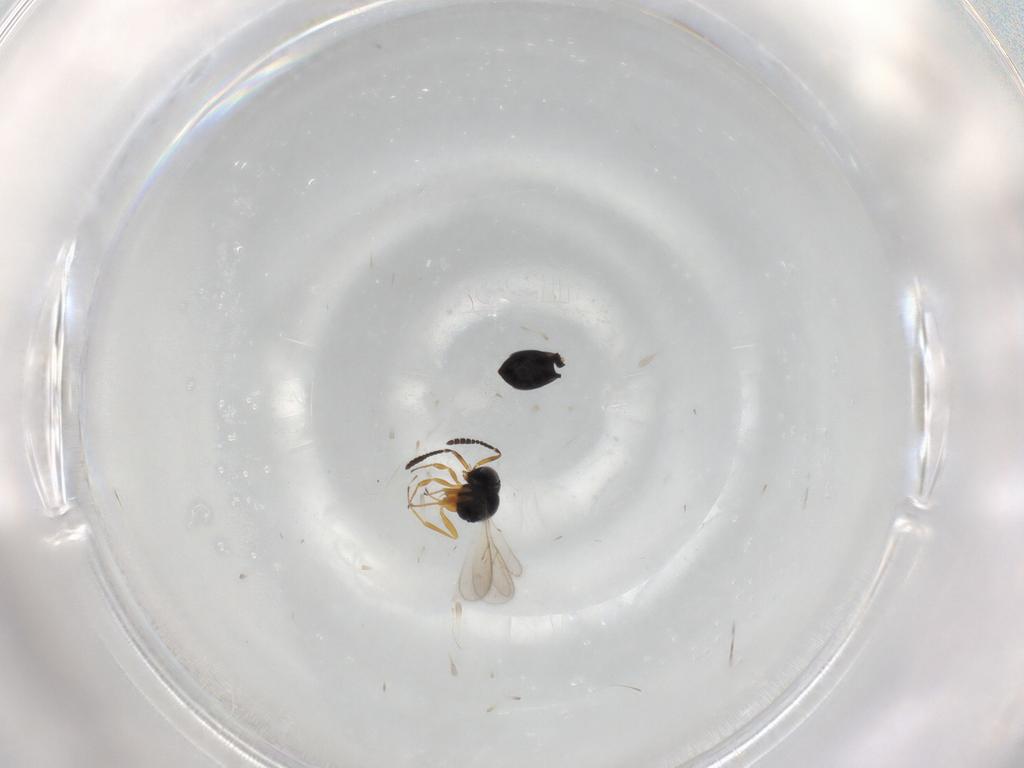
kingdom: Animalia
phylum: Arthropoda
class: Insecta
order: Hymenoptera
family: Scelionidae
